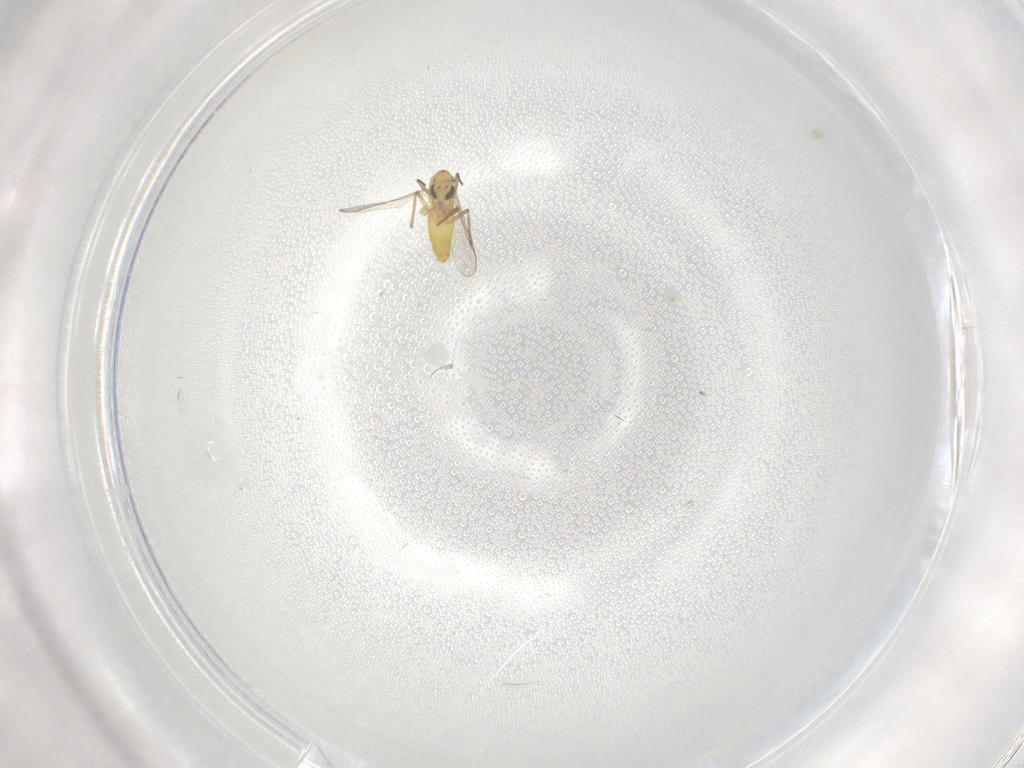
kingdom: Animalia
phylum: Arthropoda
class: Insecta
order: Diptera
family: Chironomidae
